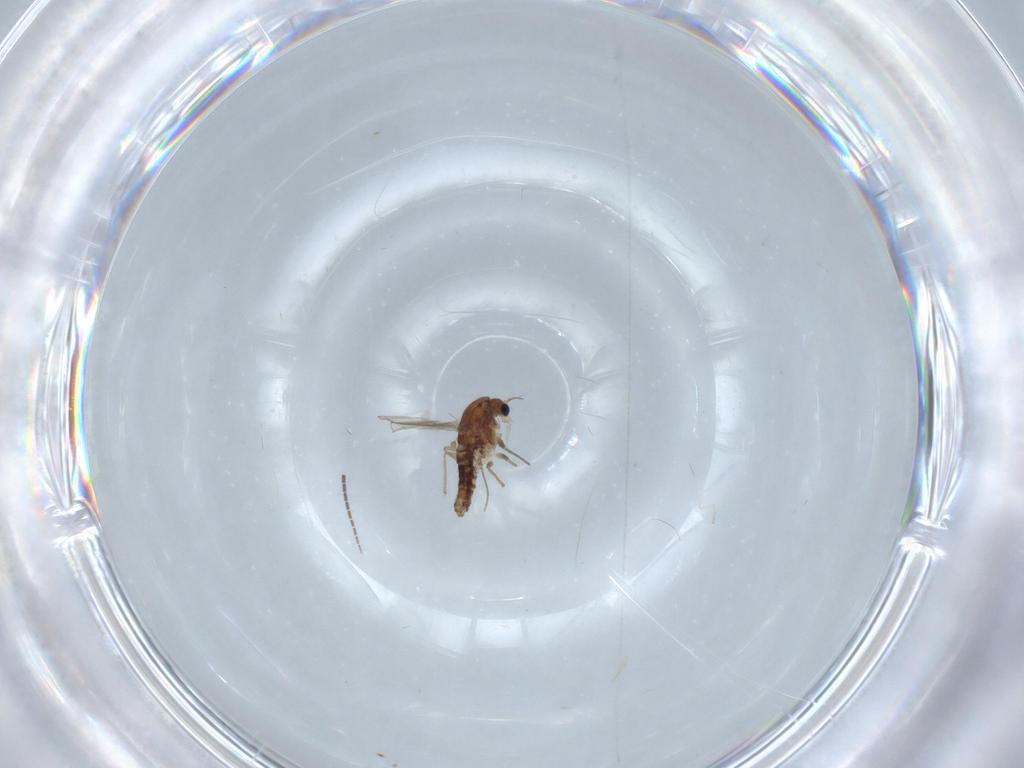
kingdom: Animalia
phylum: Arthropoda
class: Insecta
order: Diptera
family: Chironomidae
